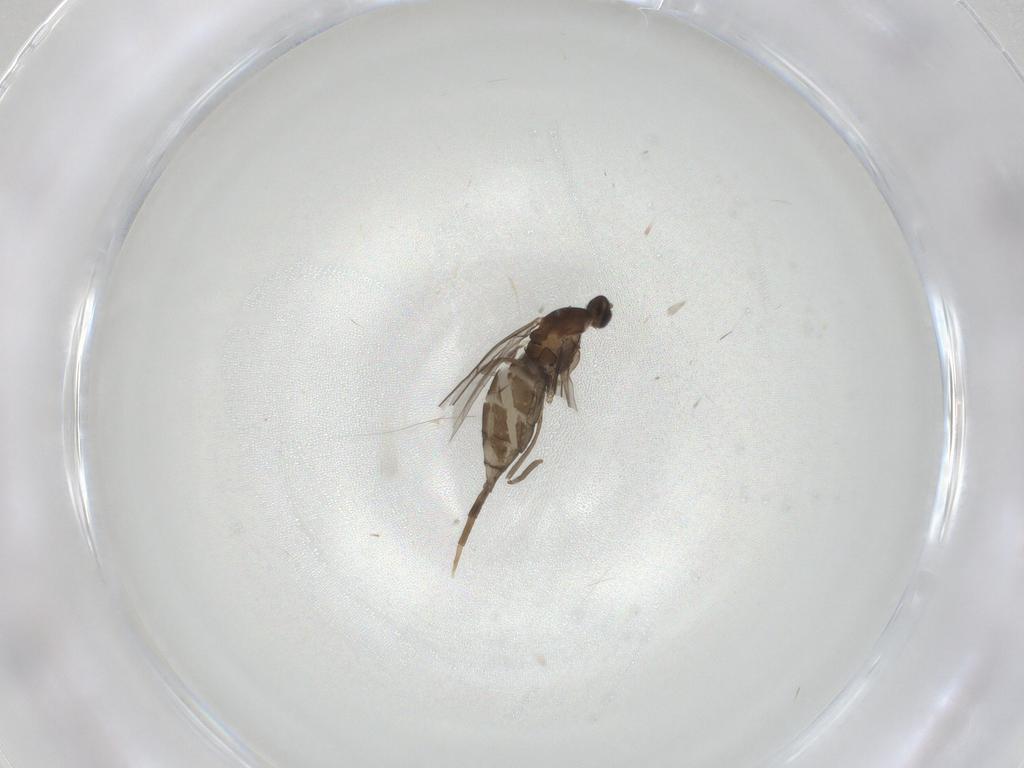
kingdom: Animalia
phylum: Arthropoda
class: Insecta
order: Diptera
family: Cecidomyiidae
